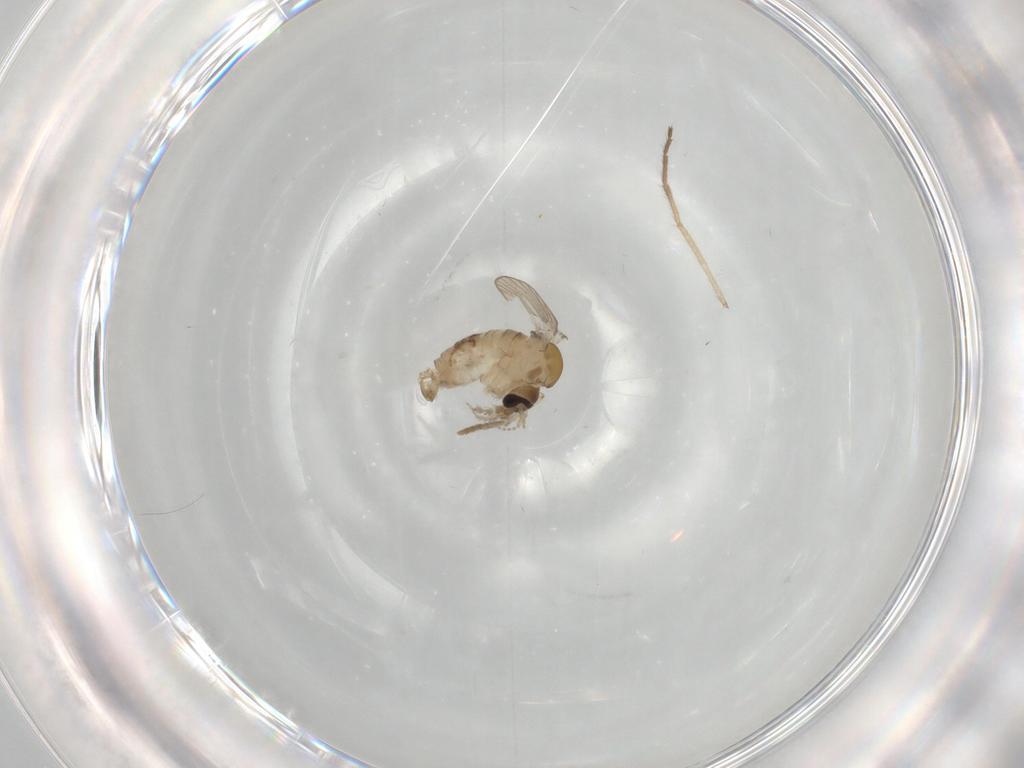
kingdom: Animalia
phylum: Arthropoda
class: Insecta
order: Diptera
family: Psychodidae
